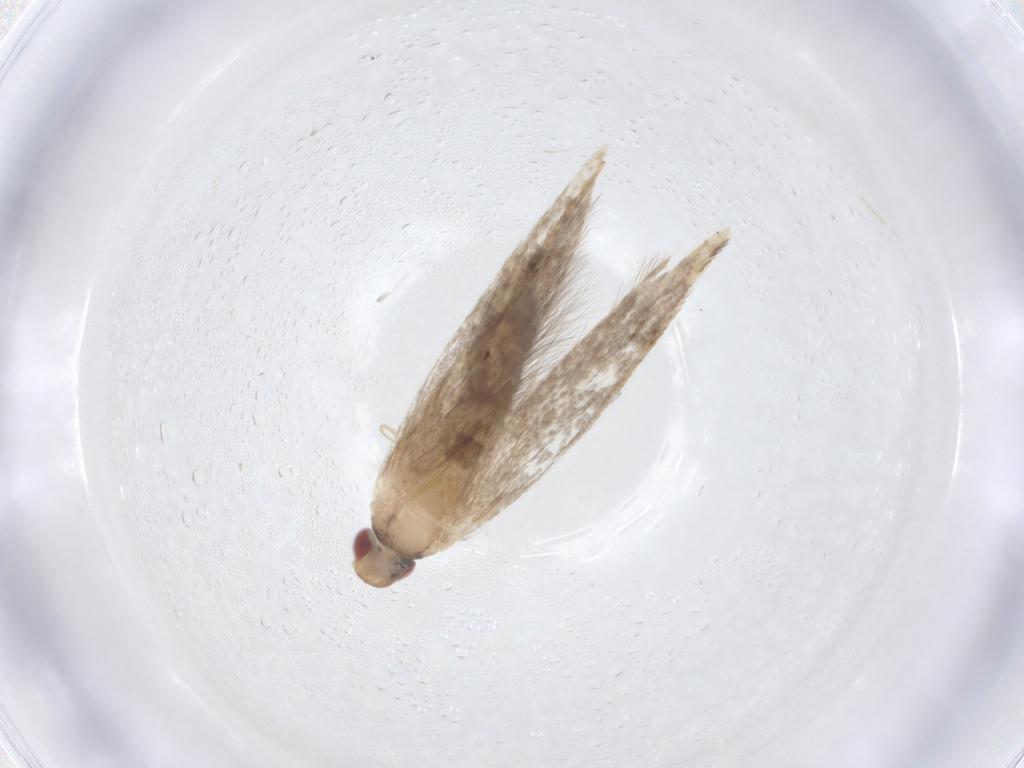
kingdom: Animalia
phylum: Arthropoda
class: Insecta
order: Lepidoptera
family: Cosmopterigidae
